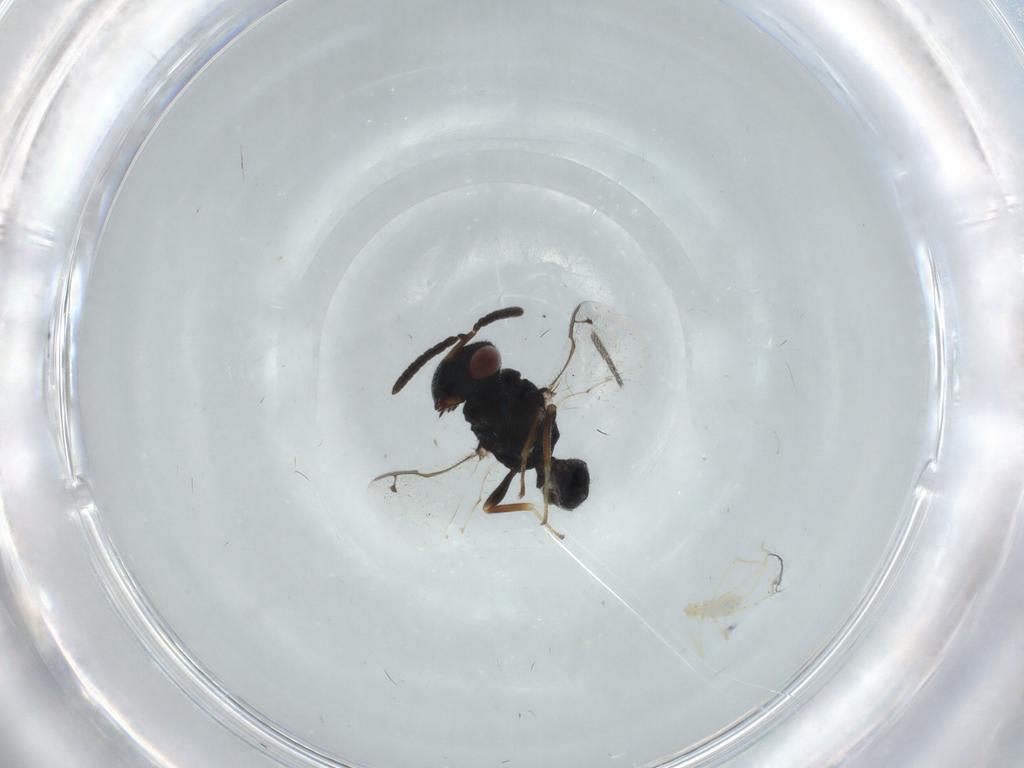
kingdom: Animalia
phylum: Arthropoda
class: Insecta
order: Hymenoptera
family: Pteromalidae
